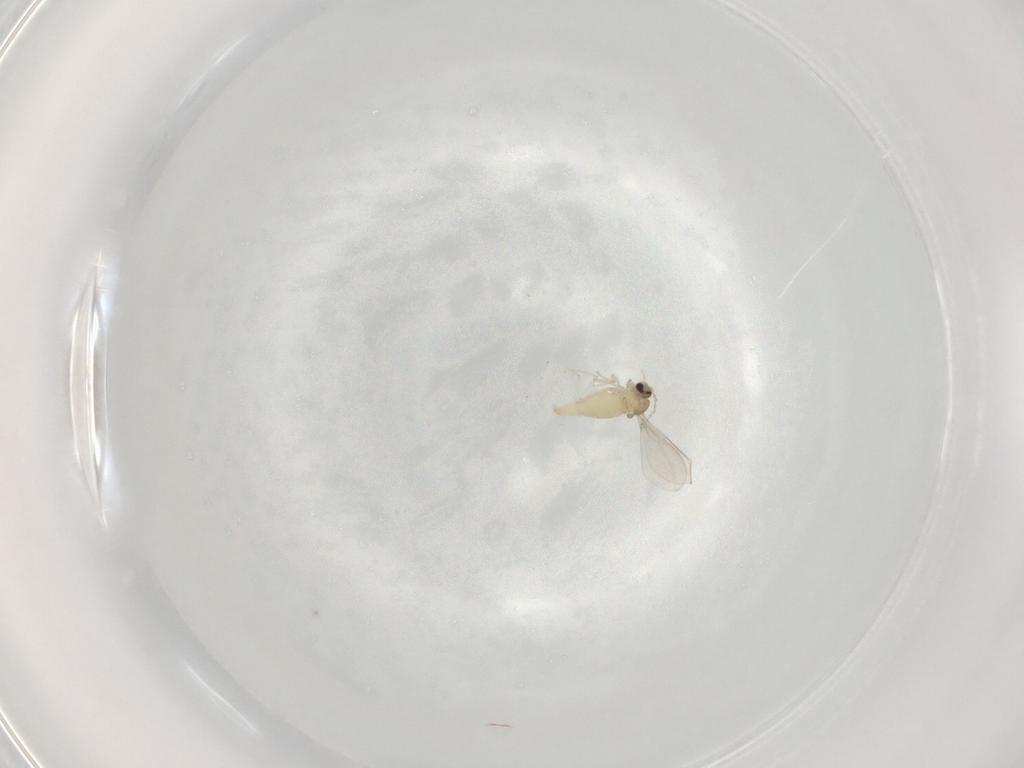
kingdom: Animalia
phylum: Arthropoda
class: Insecta
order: Diptera
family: Cecidomyiidae
